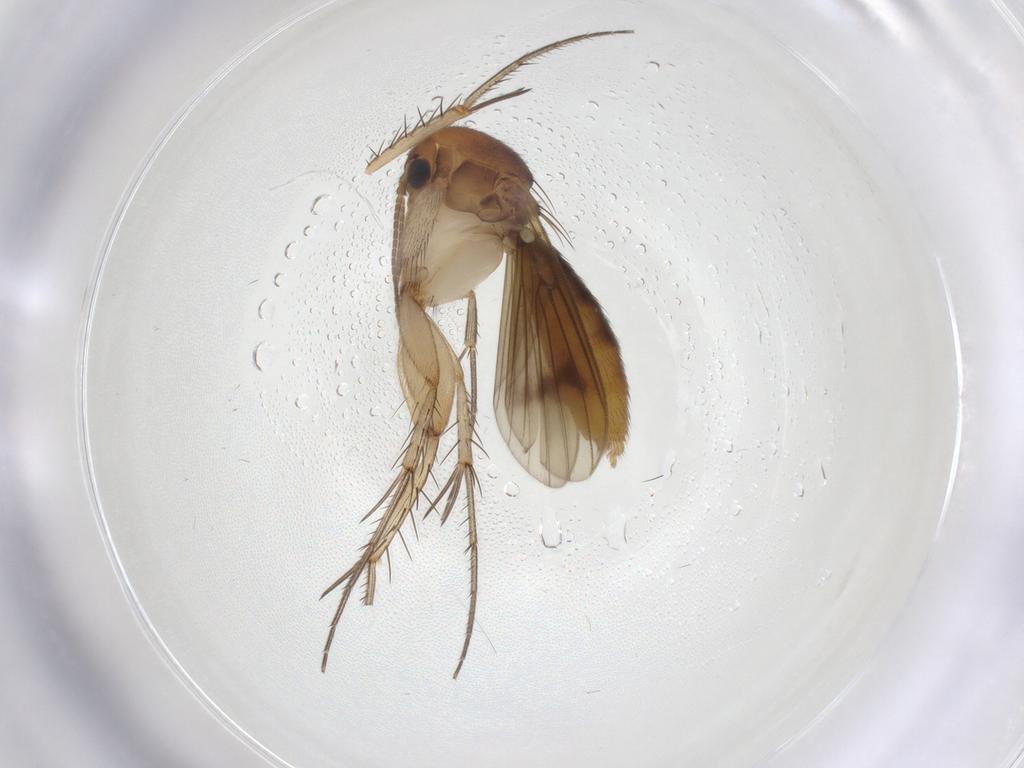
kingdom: Animalia
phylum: Arthropoda
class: Insecta
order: Diptera
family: Mycetophilidae
